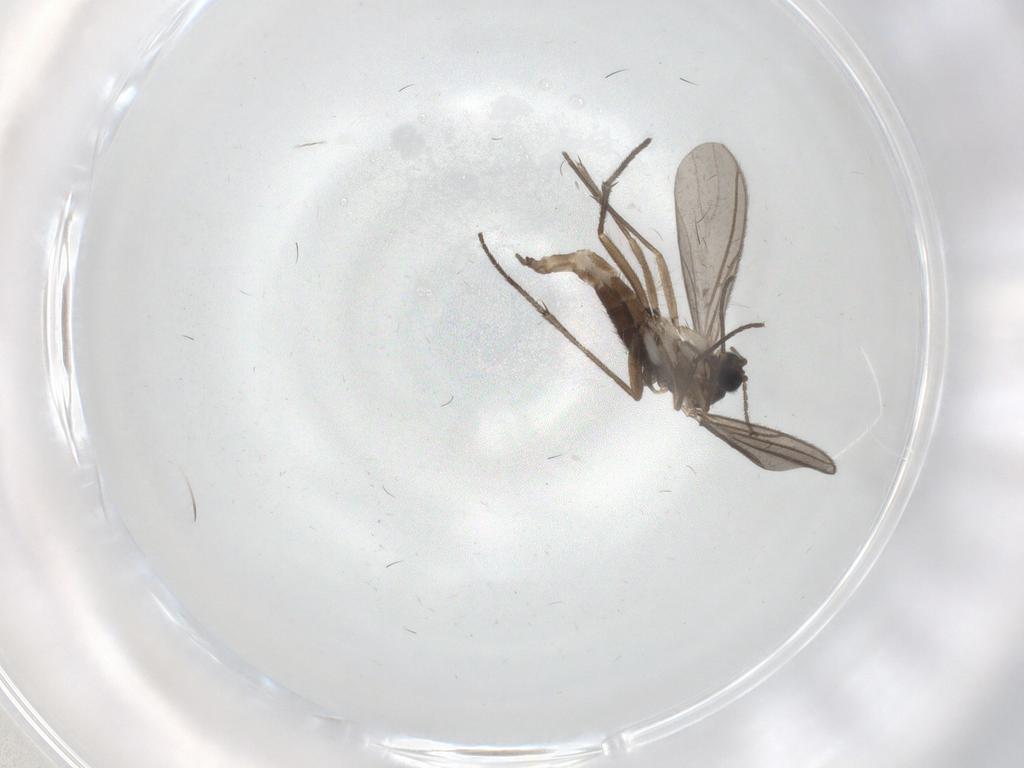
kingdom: Animalia
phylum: Arthropoda
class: Insecta
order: Diptera
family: Sciaridae
